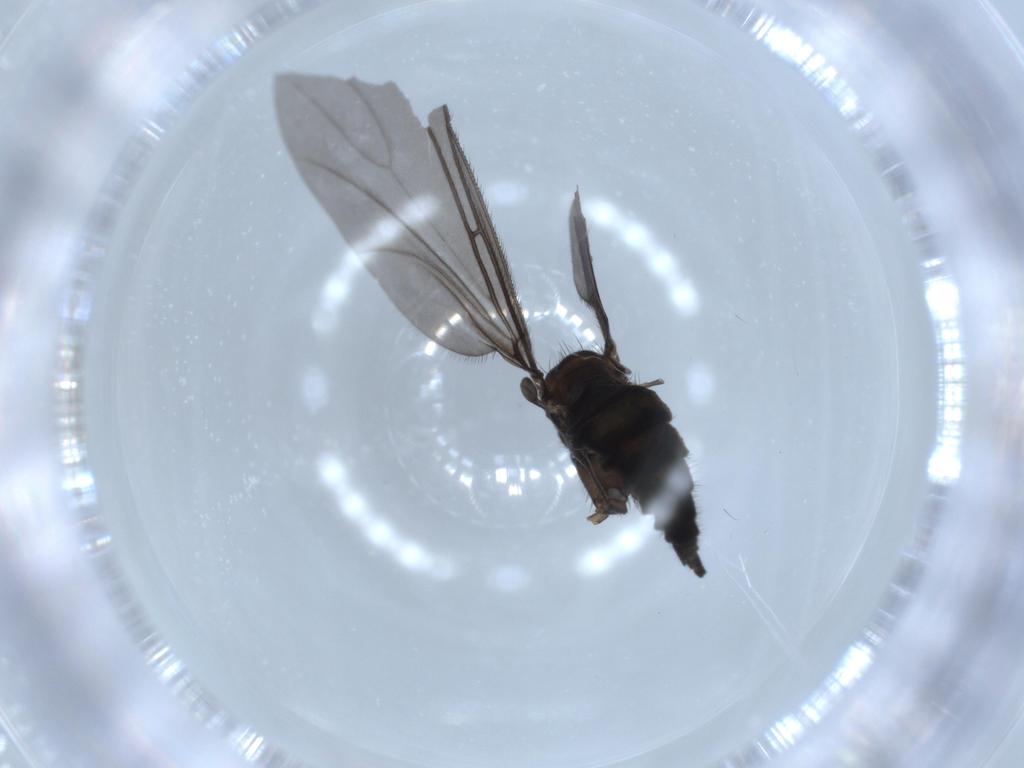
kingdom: Animalia
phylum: Arthropoda
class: Insecta
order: Diptera
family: Sciaridae
